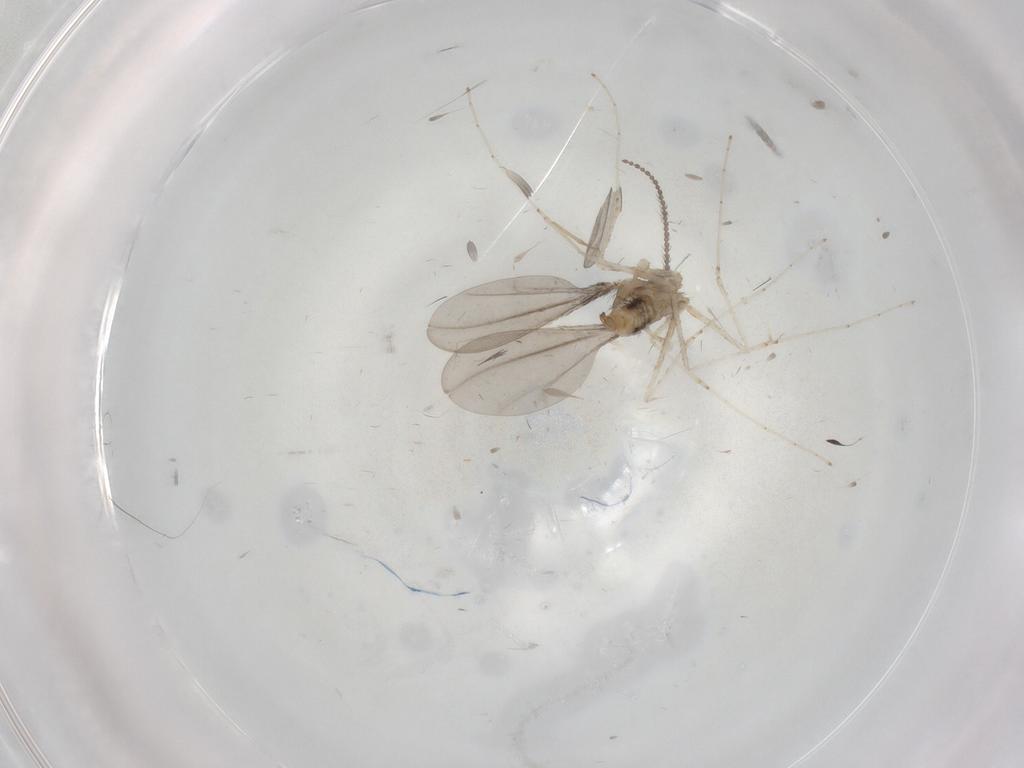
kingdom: Animalia
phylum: Arthropoda
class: Insecta
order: Diptera
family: Cecidomyiidae
